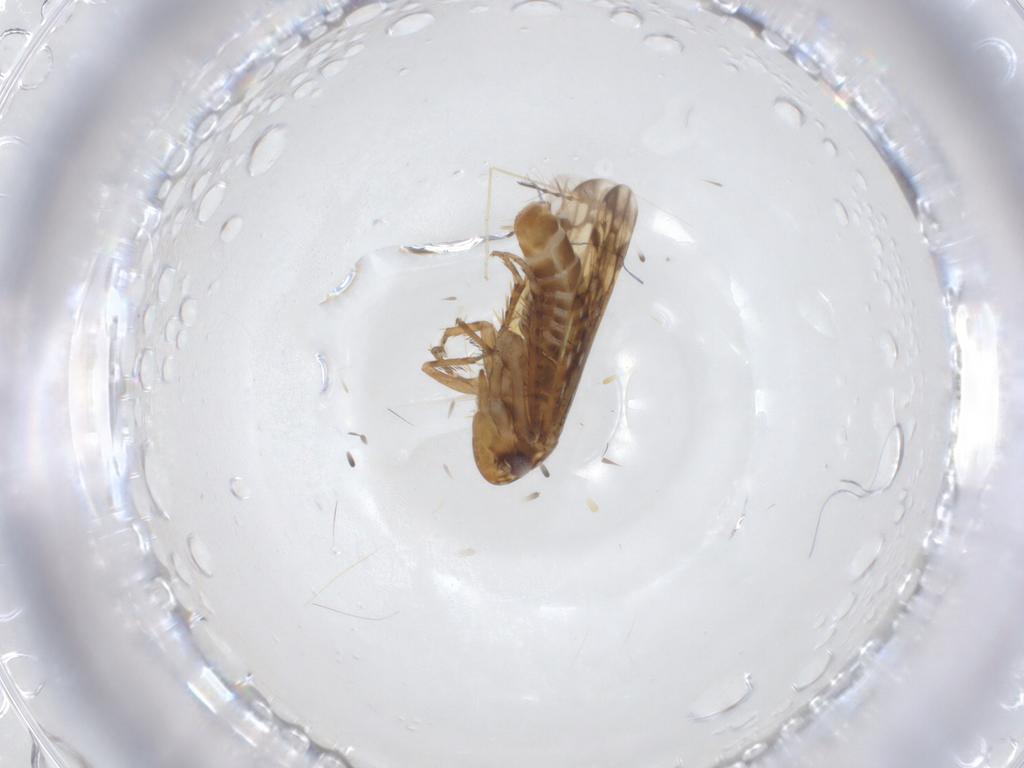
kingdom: Animalia
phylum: Arthropoda
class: Insecta
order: Hemiptera
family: Cicadellidae
